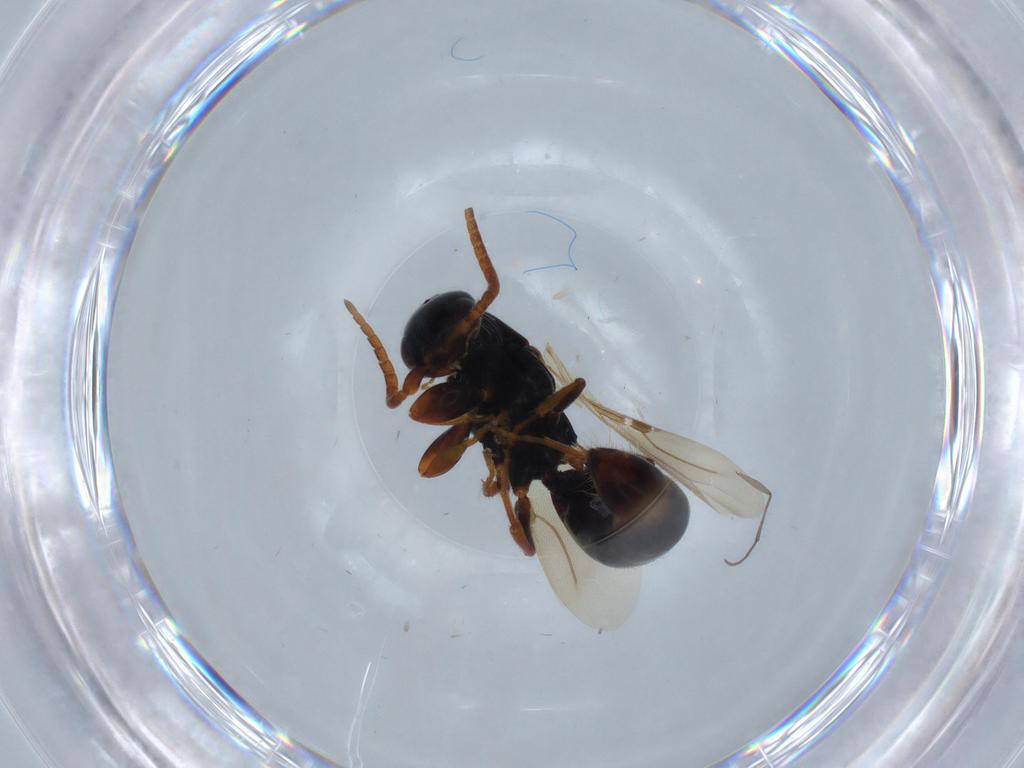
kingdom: Animalia
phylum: Arthropoda
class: Insecta
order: Hymenoptera
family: Bethylidae
